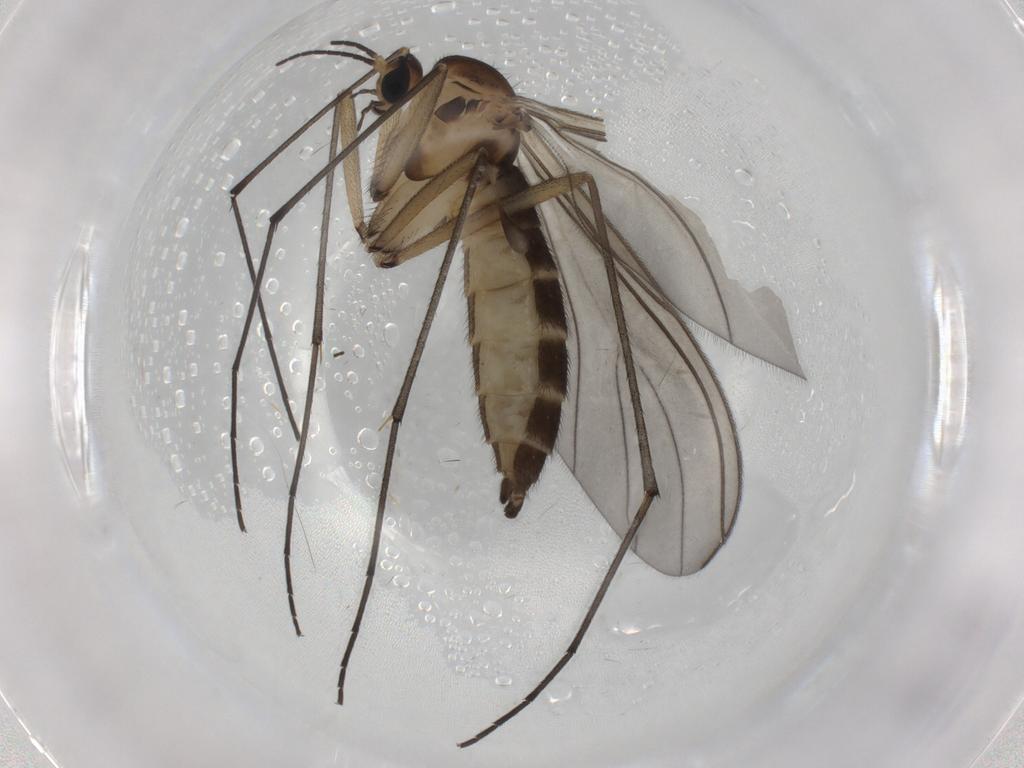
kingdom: Animalia
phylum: Arthropoda
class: Insecta
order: Diptera
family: Sciaridae
